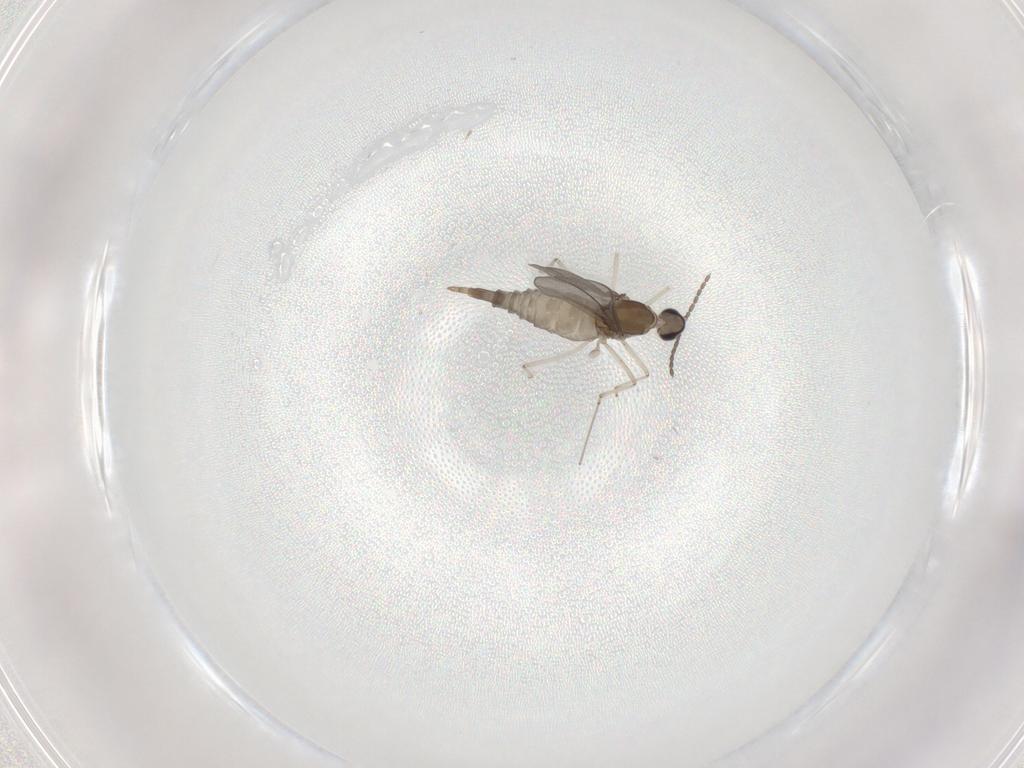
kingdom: Animalia
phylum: Arthropoda
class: Insecta
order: Diptera
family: Cecidomyiidae
